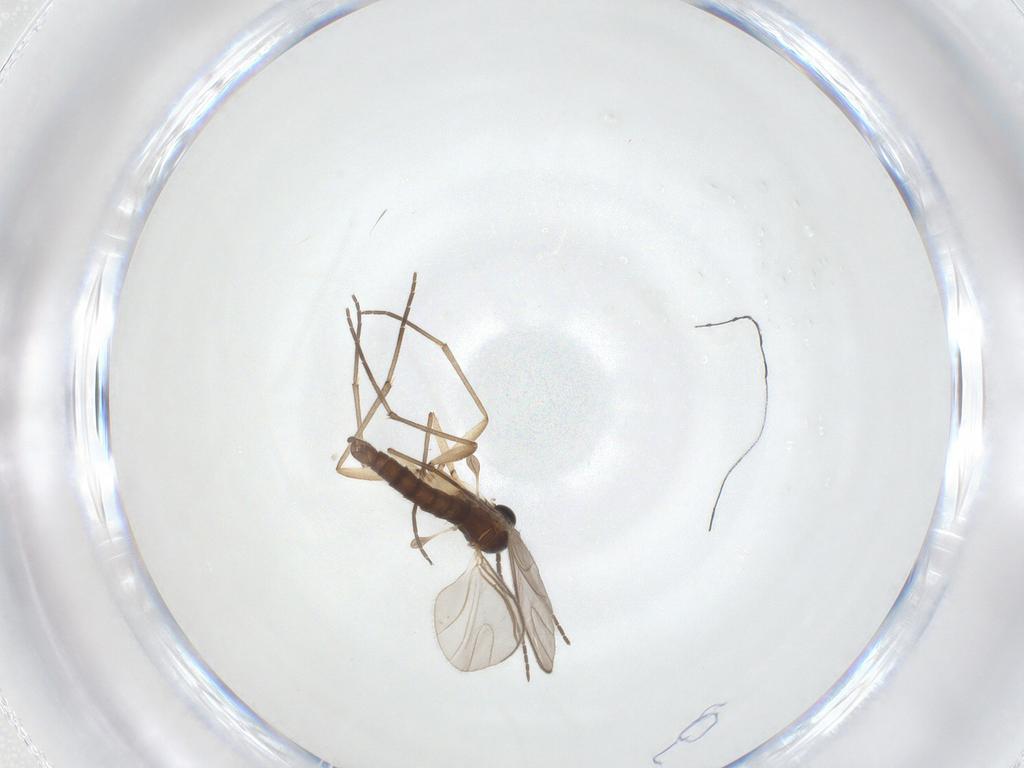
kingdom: Animalia
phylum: Arthropoda
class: Insecta
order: Diptera
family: Sciaridae
